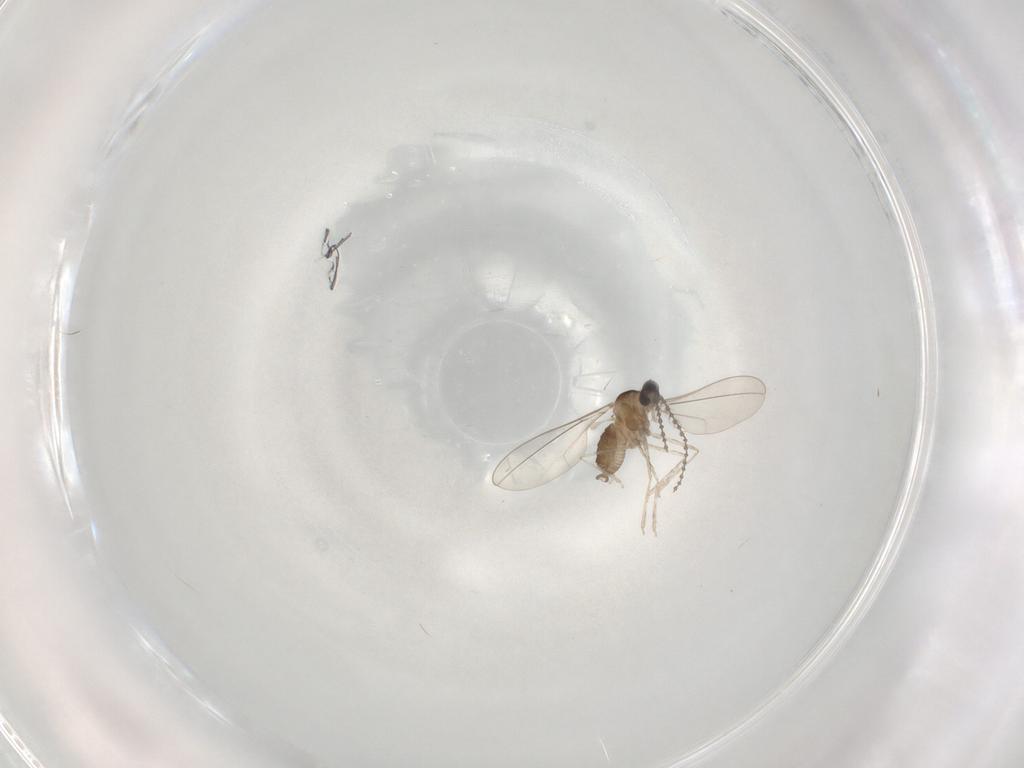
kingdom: Animalia
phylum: Arthropoda
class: Insecta
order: Diptera
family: Cecidomyiidae
